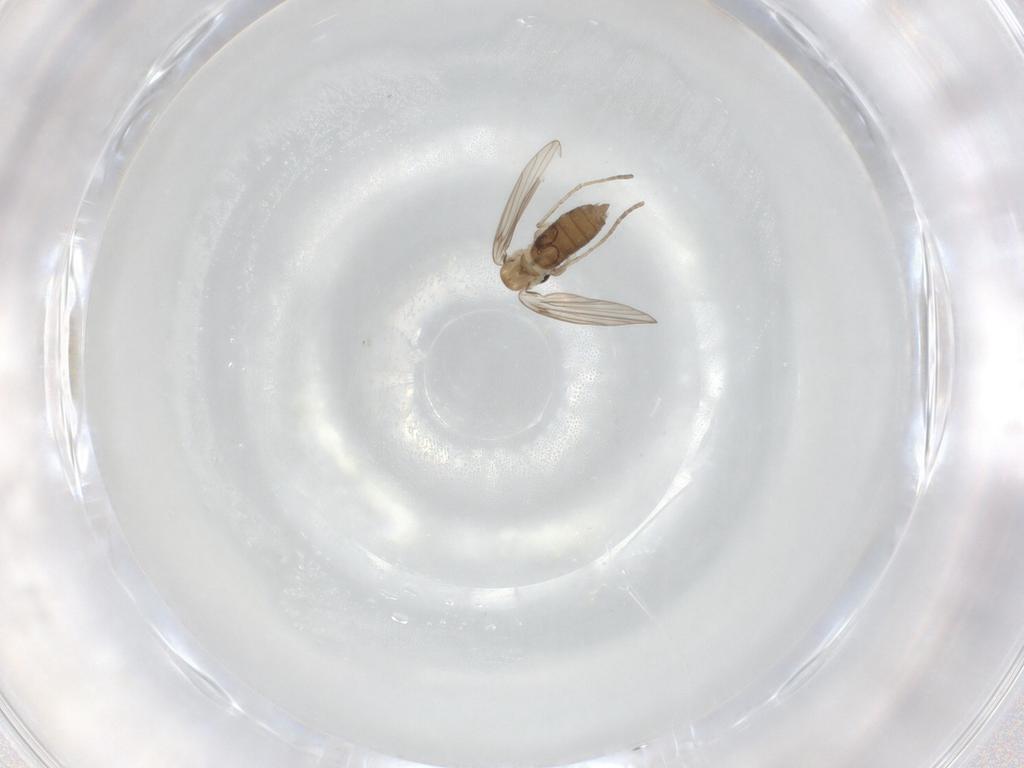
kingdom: Animalia
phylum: Arthropoda
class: Insecta
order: Diptera
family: Psychodidae
